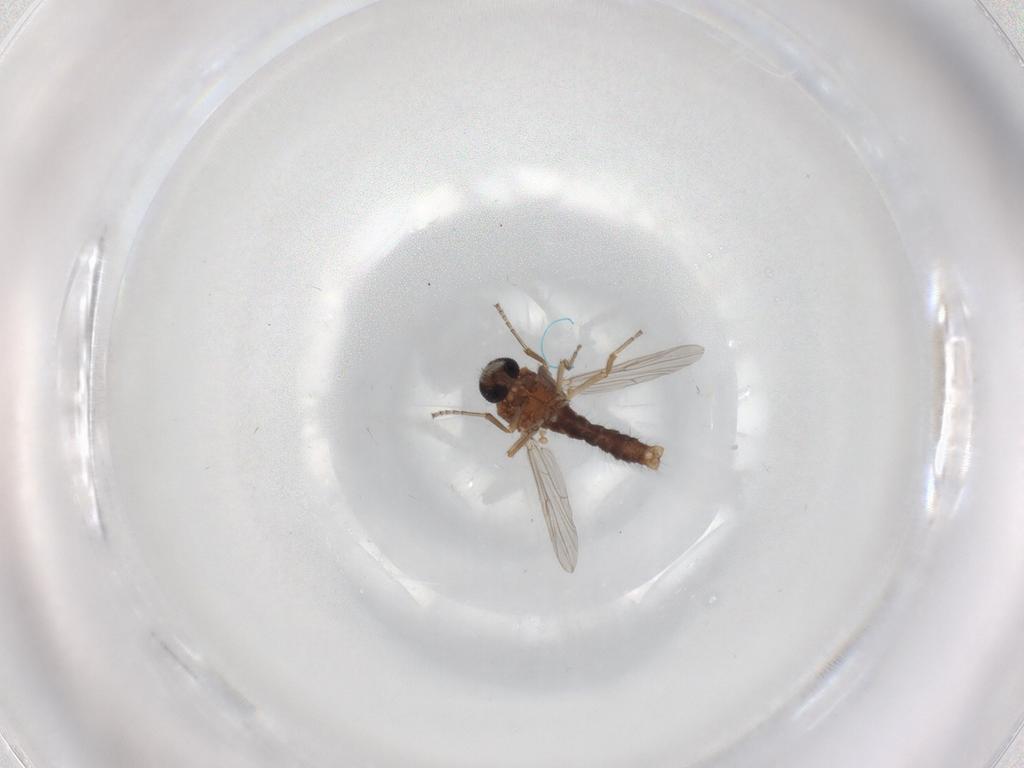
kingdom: Animalia
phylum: Arthropoda
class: Insecta
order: Diptera
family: Ceratopogonidae
